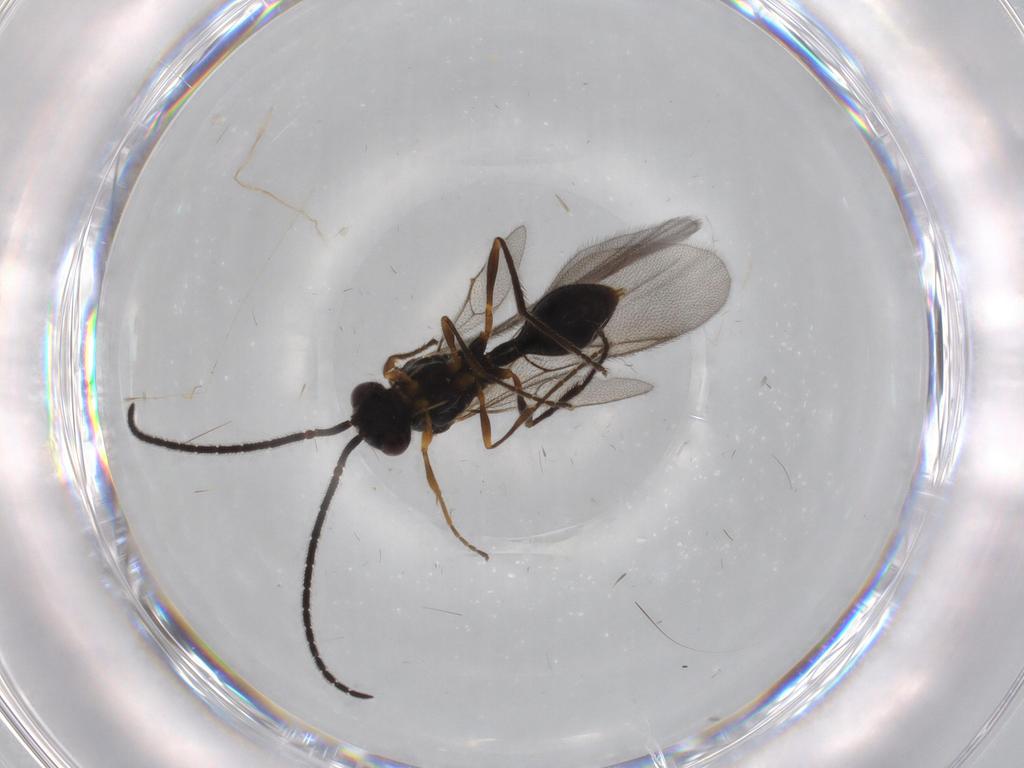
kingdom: Animalia
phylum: Arthropoda
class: Insecta
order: Hymenoptera
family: Diapriidae
